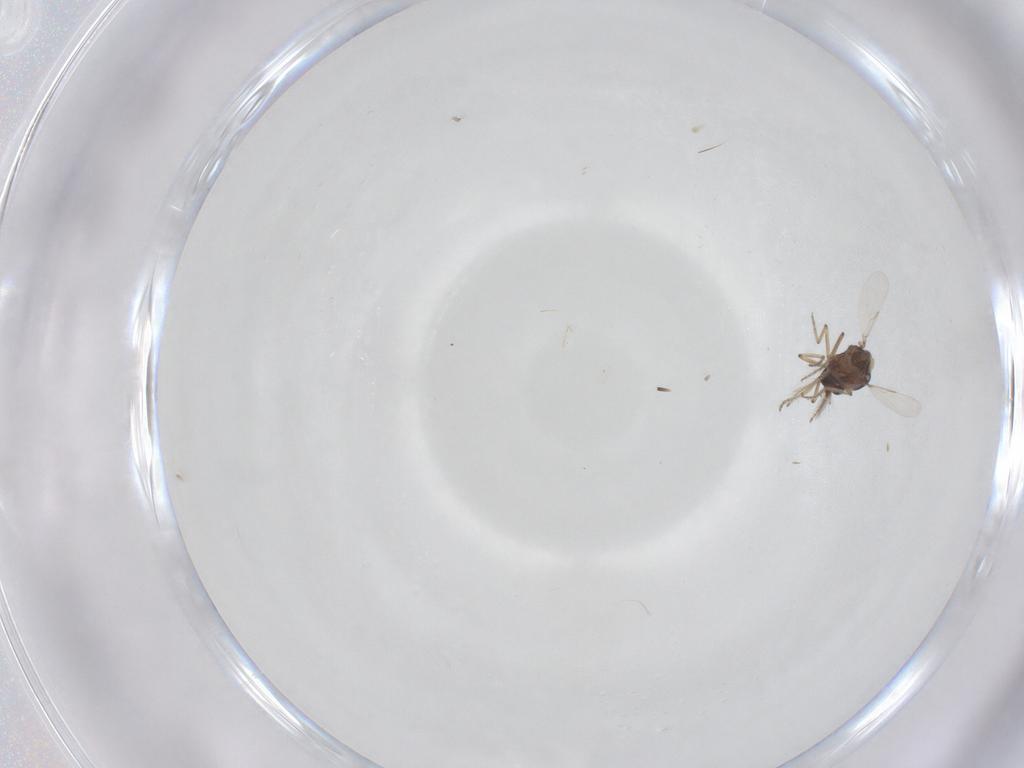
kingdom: Animalia
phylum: Arthropoda
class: Insecta
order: Diptera
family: Ceratopogonidae
